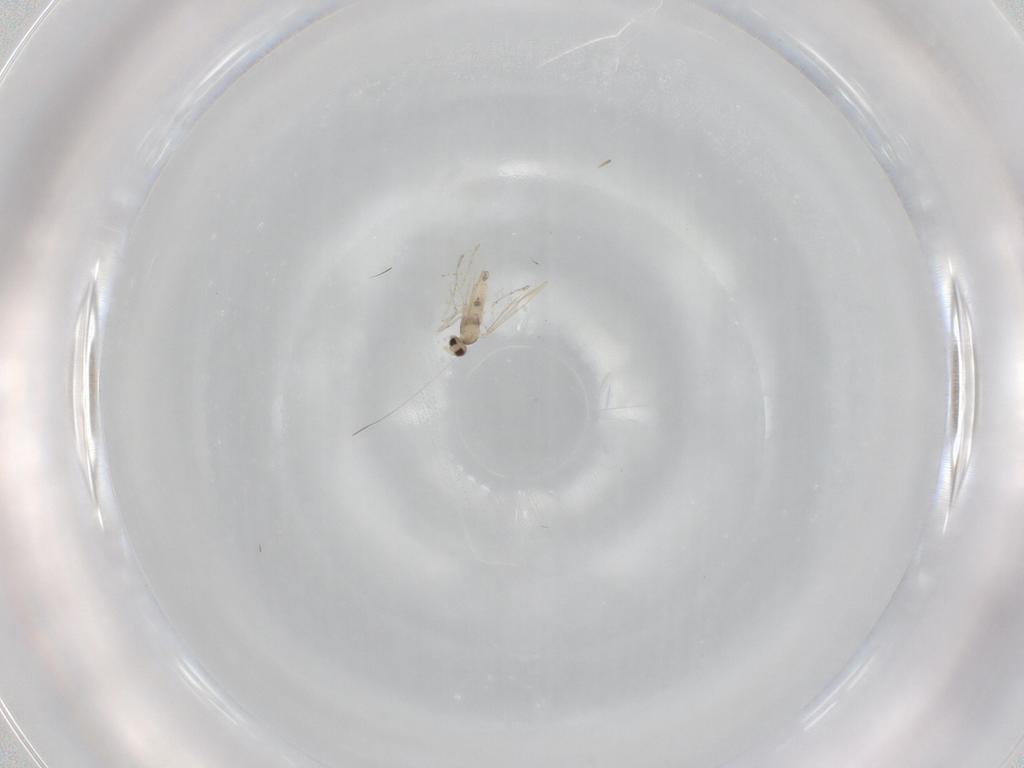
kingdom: Animalia
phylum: Arthropoda
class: Insecta
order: Diptera
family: Cecidomyiidae
